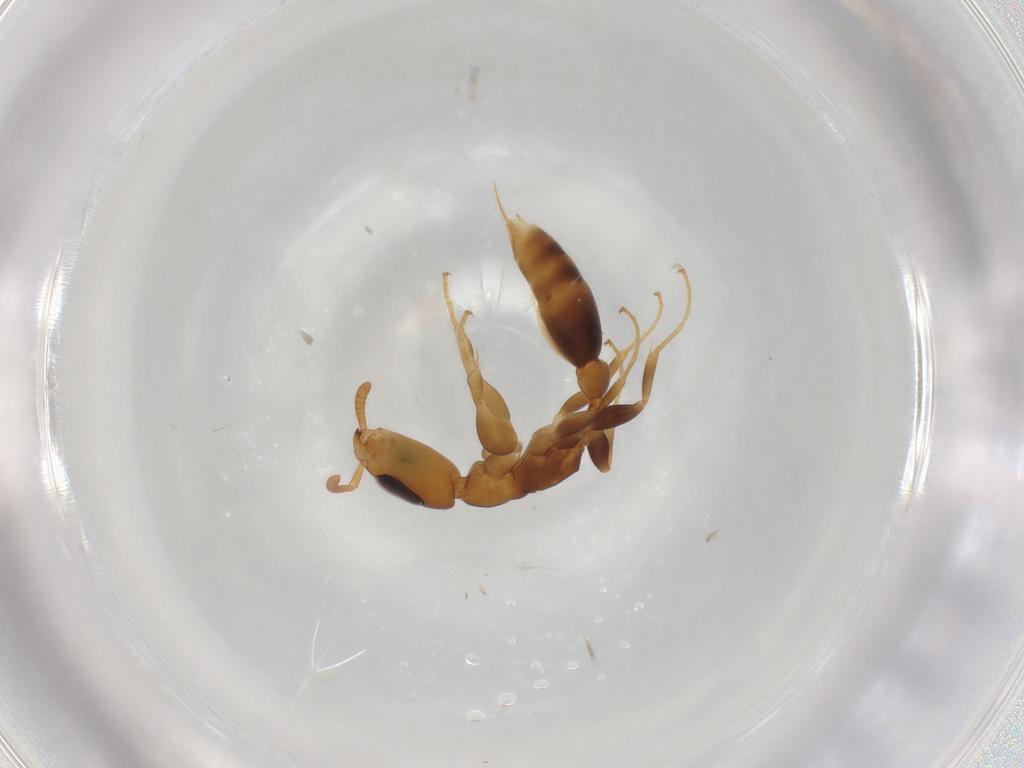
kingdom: Animalia
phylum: Arthropoda
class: Insecta
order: Hymenoptera
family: Formicidae
